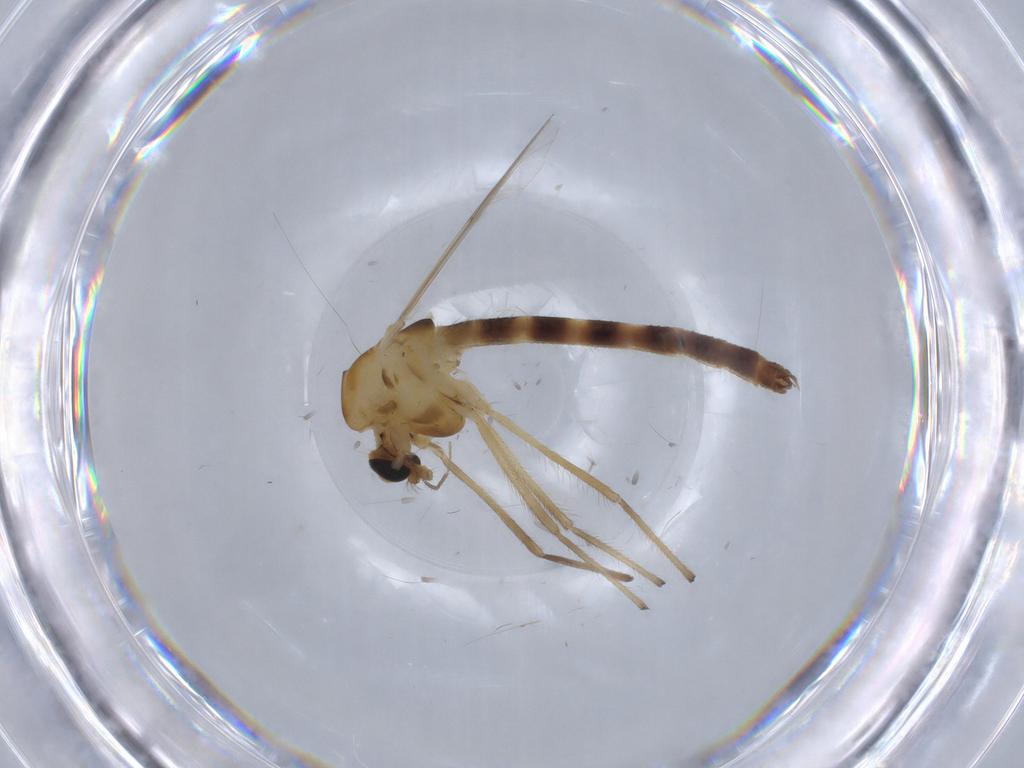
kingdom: Animalia
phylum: Arthropoda
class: Insecta
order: Diptera
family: Chironomidae
